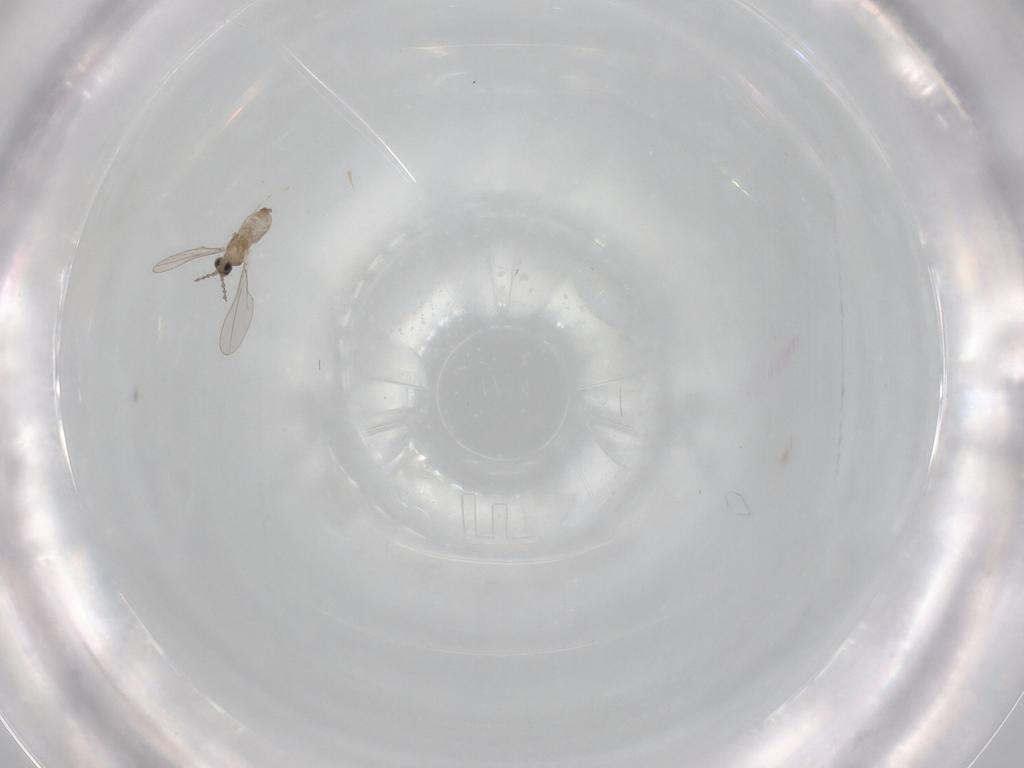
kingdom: Animalia
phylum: Arthropoda
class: Insecta
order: Diptera
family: Cecidomyiidae
